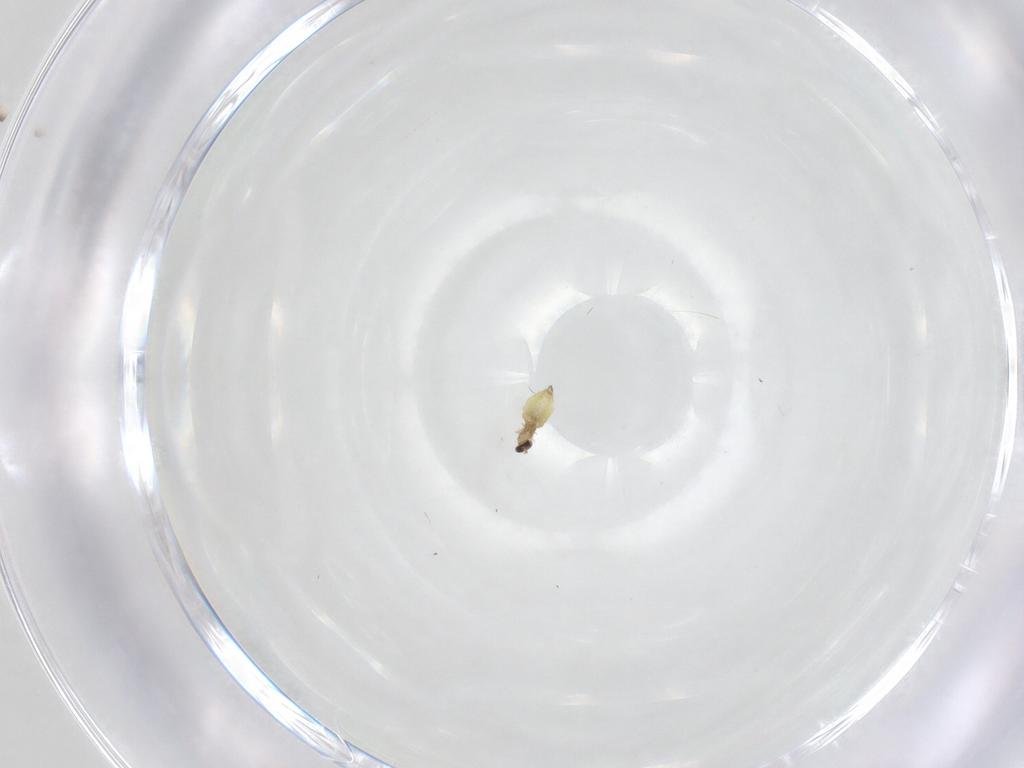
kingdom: Animalia
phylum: Arthropoda
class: Insecta
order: Diptera
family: Cecidomyiidae
